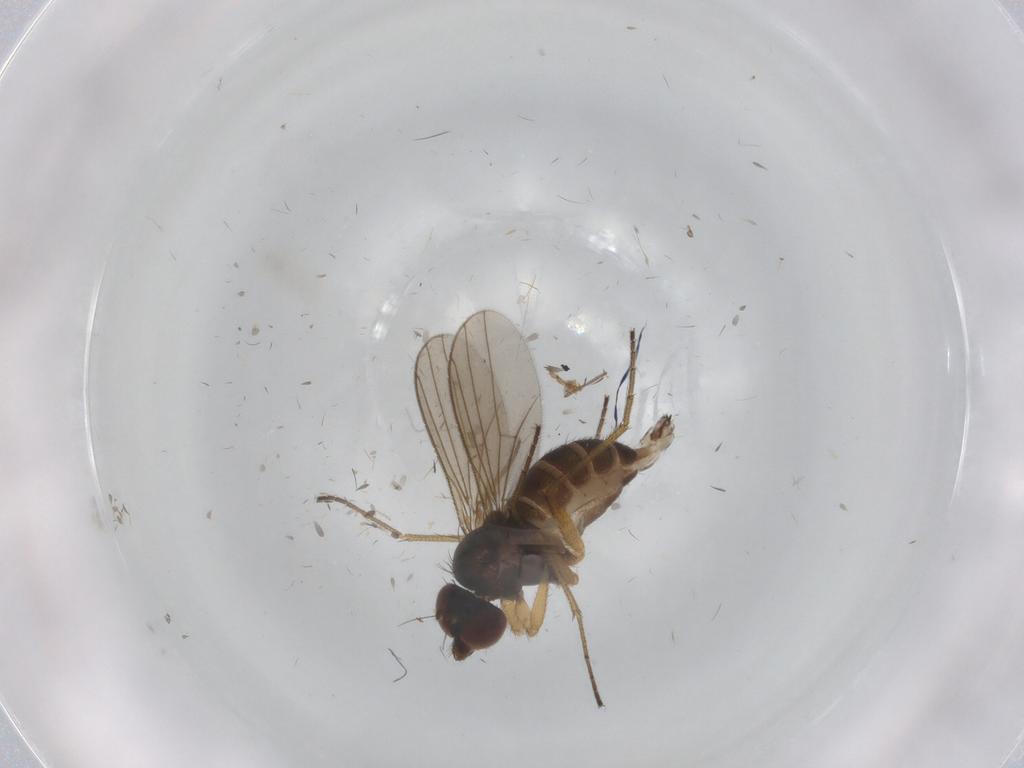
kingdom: Animalia
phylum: Arthropoda
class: Insecta
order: Diptera
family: Dolichopodidae
